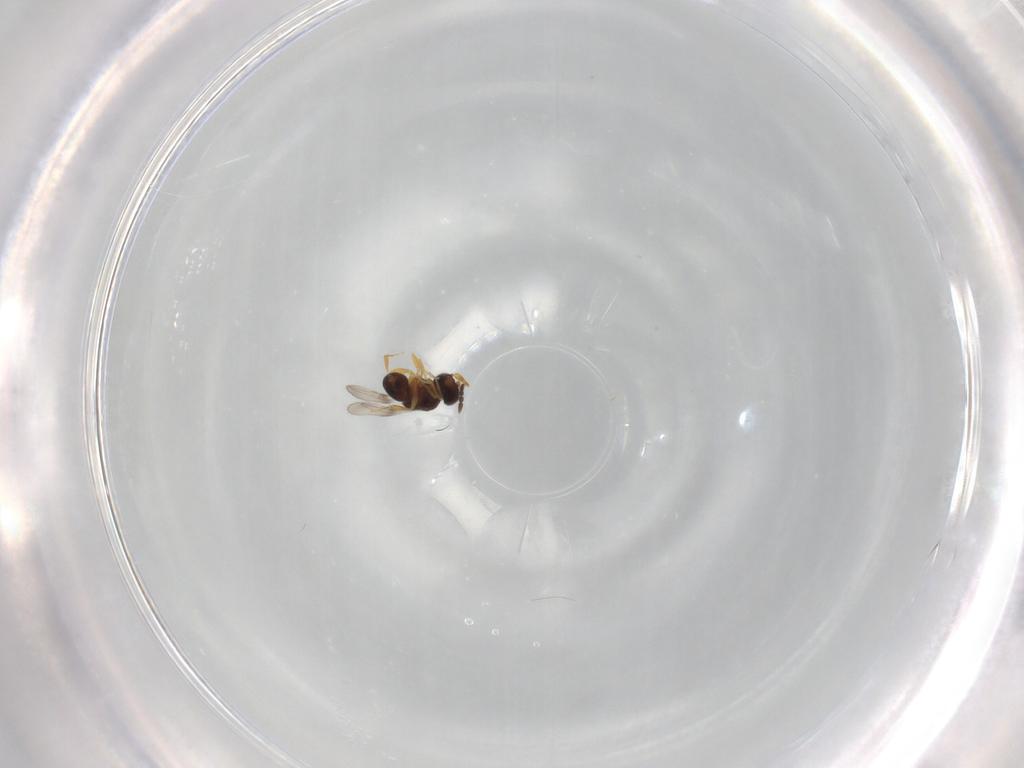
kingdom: Animalia
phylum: Arthropoda
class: Insecta
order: Hymenoptera
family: Ceraphronidae
